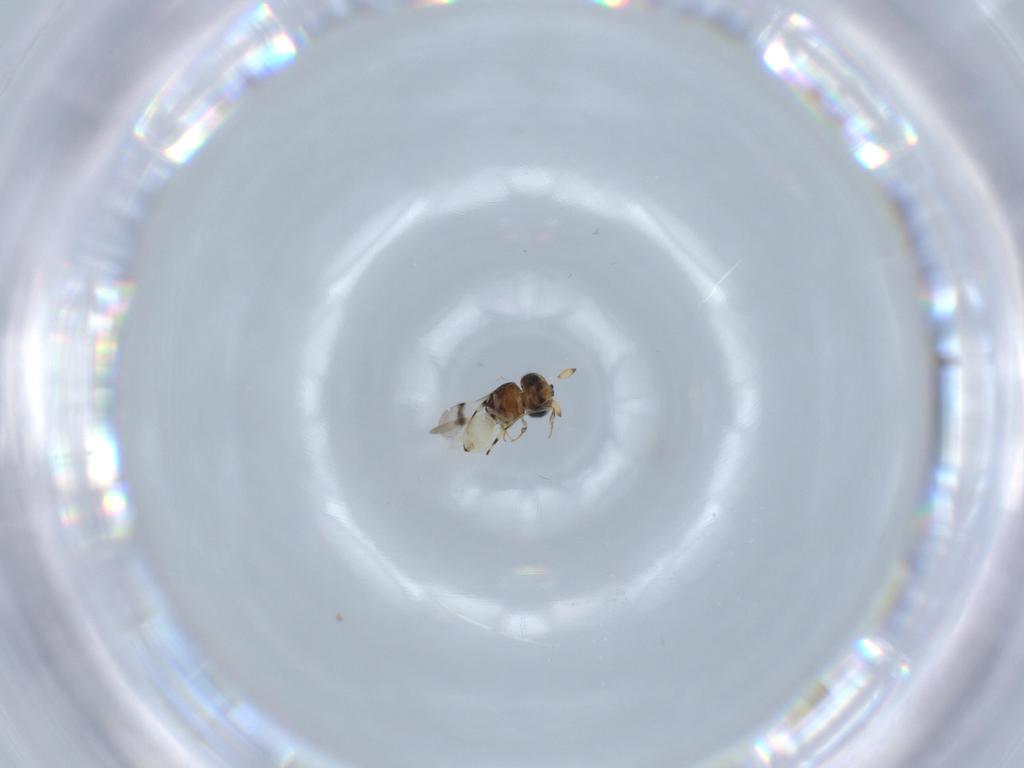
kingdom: Animalia
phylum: Arthropoda
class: Insecta
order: Hymenoptera
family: Scelionidae
